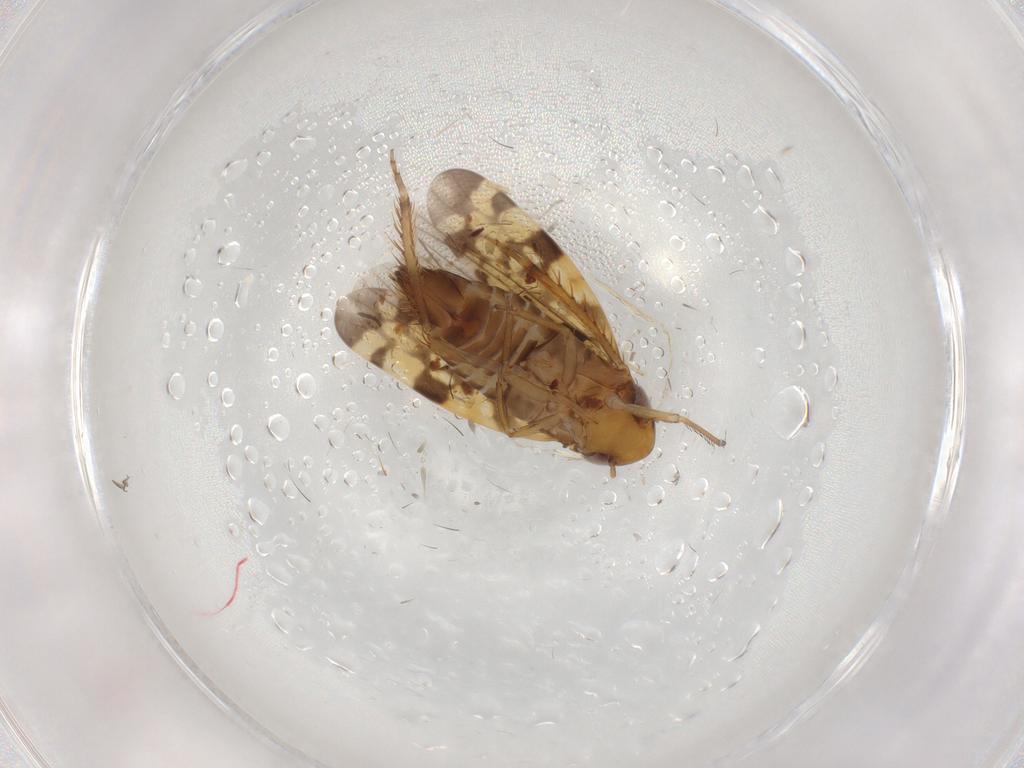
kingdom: Animalia
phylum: Arthropoda
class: Insecta
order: Hemiptera
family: Cicadellidae
